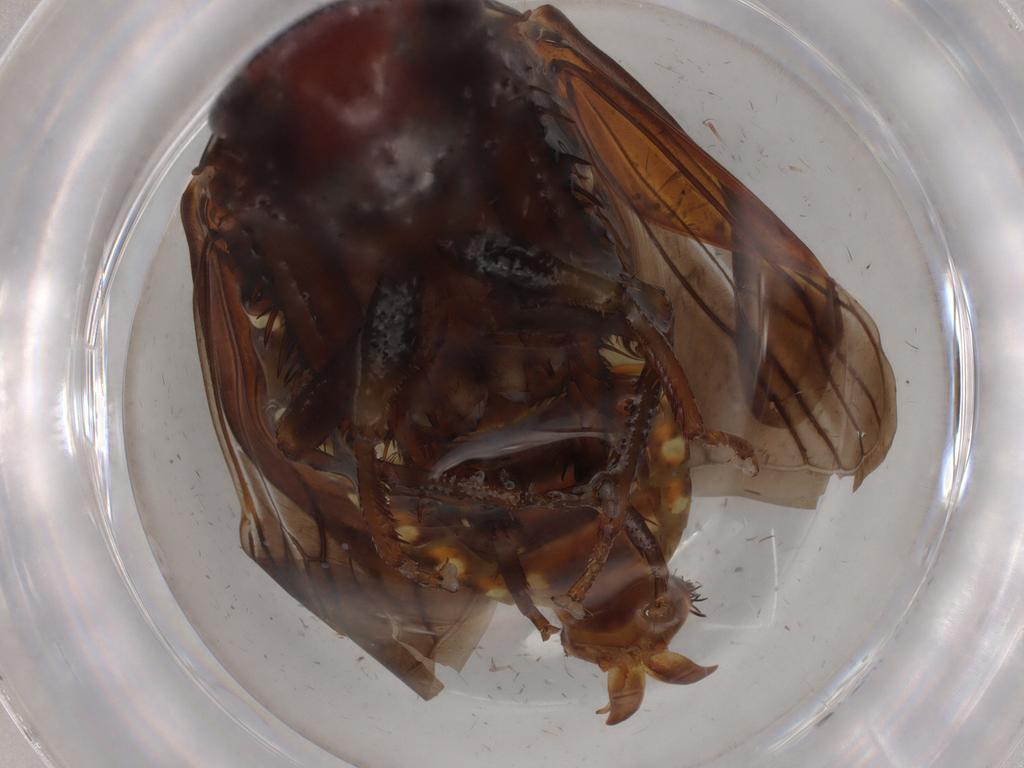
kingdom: Animalia
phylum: Arthropoda
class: Insecta
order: Hemiptera
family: Cicadellidae
